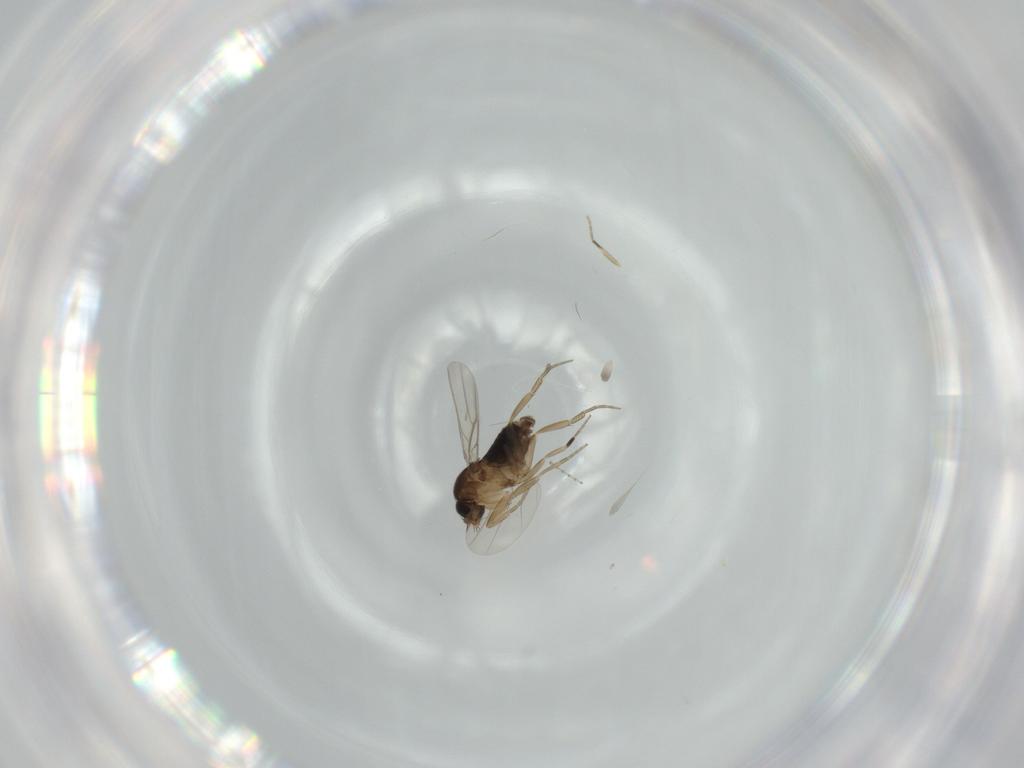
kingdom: Animalia
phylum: Arthropoda
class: Insecta
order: Diptera
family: Phoridae
